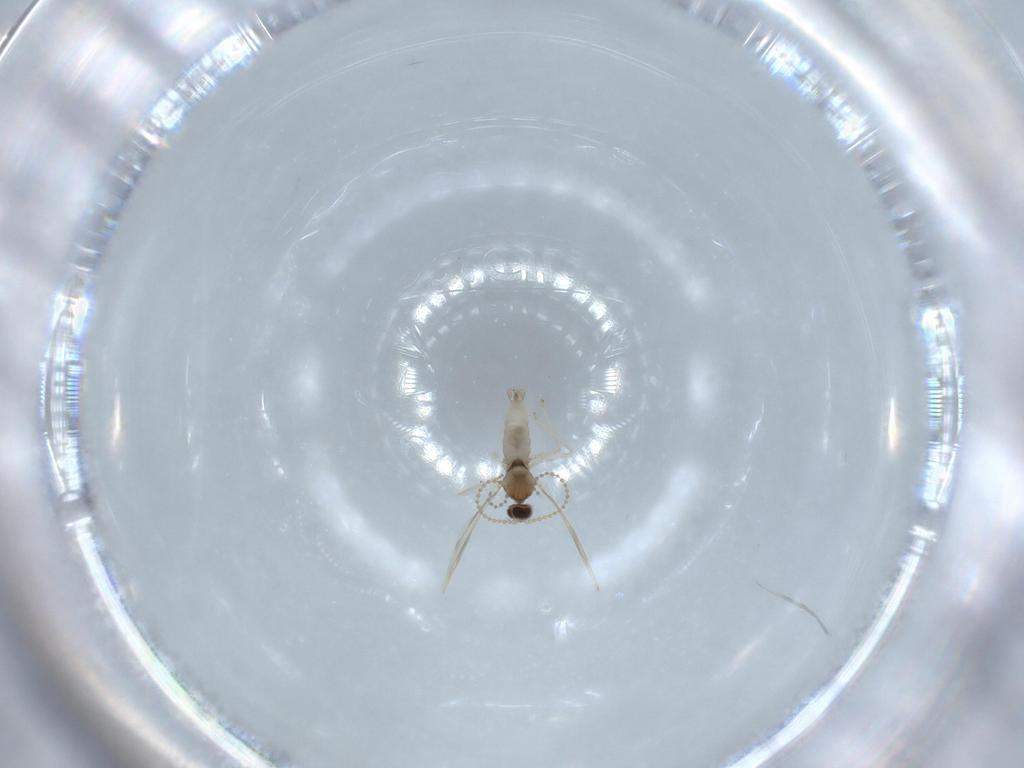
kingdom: Animalia
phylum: Arthropoda
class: Insecta
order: Diptera
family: Cecidomyiidae
